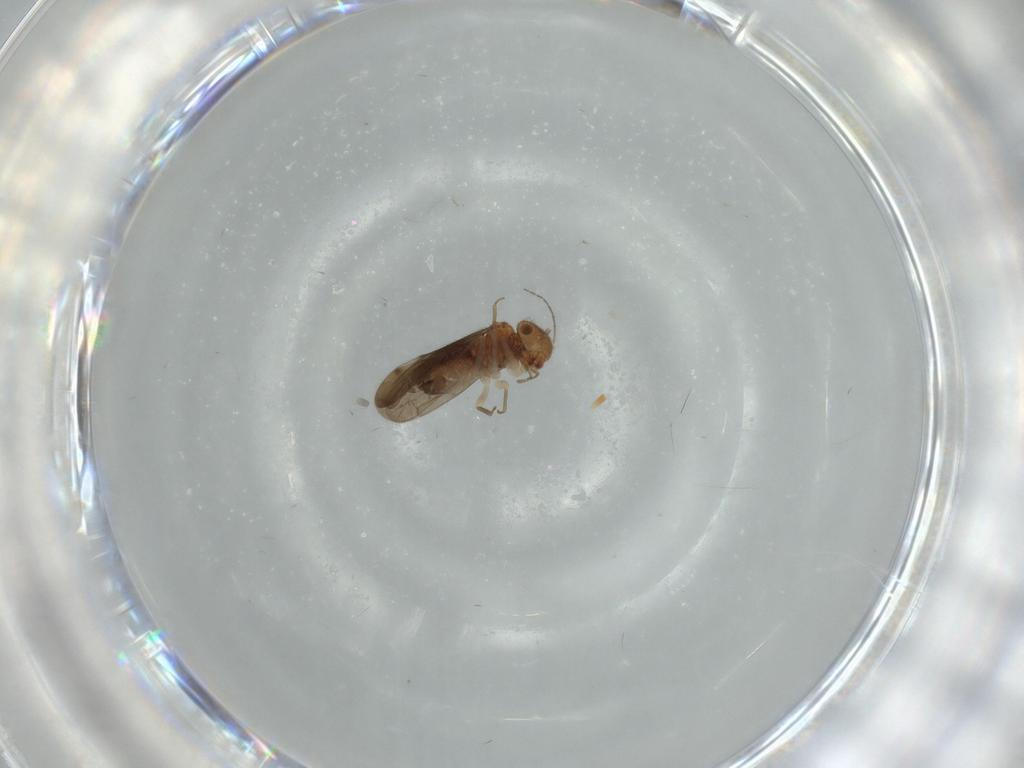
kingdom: Animalia
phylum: Arthropoda
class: Insecta
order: Psocodea
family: Ectopsocidae
